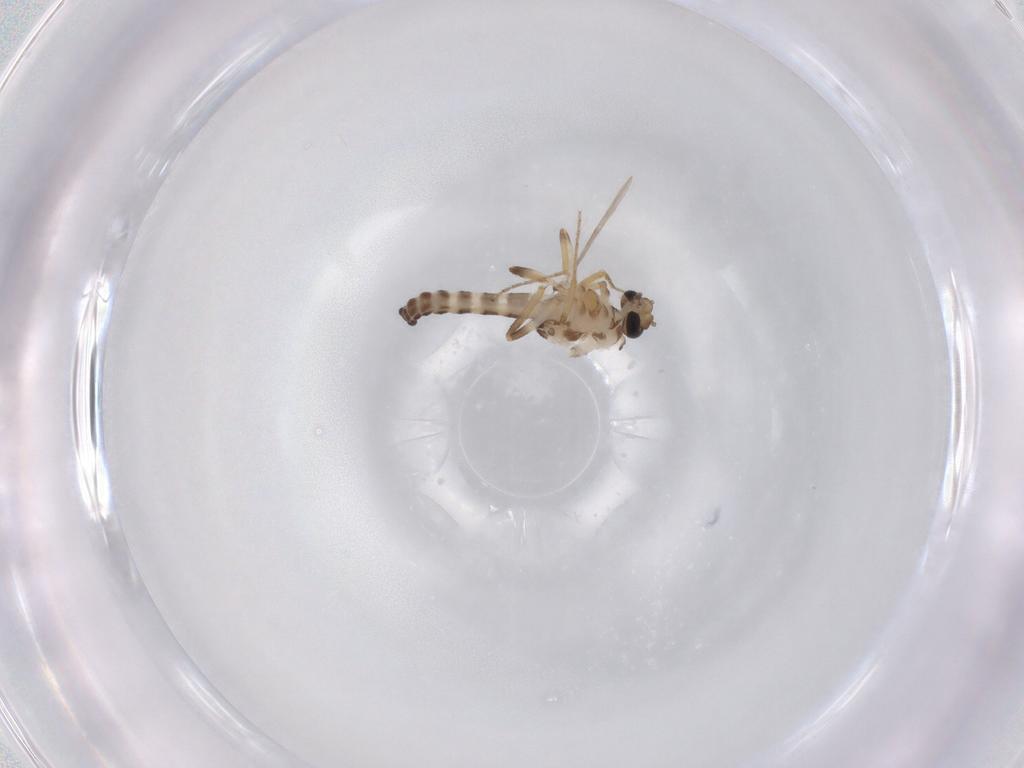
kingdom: Animalia
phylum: Arthropoda
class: Insecta
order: Diptera
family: Ceratopogonidae
